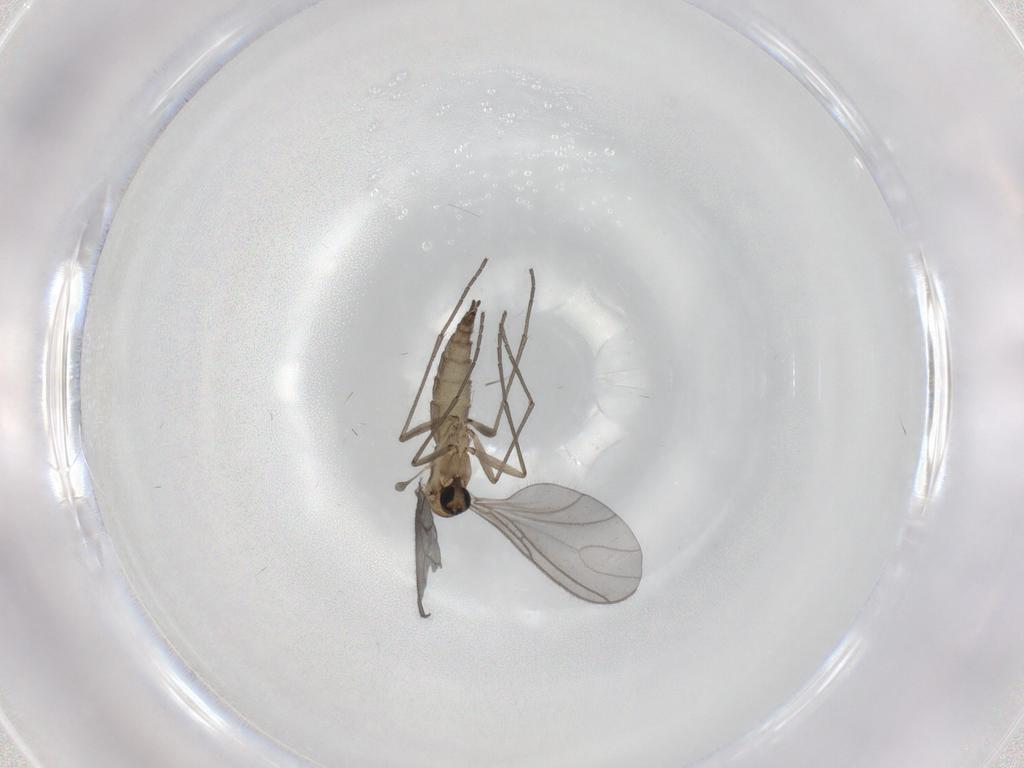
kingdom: Animalia
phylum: Arthropoda
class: Insecta
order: Diptera
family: Sciaridae
